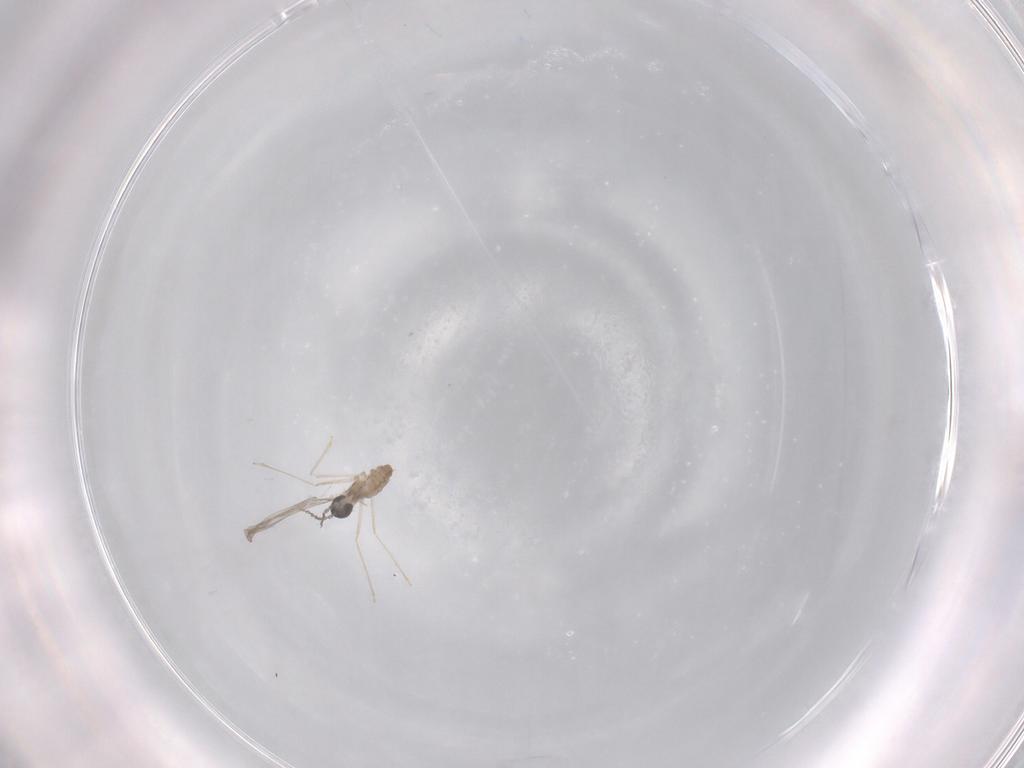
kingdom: Animalia
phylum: Arthropoda
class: Insecta
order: Diptera
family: Cecidomyiidae
